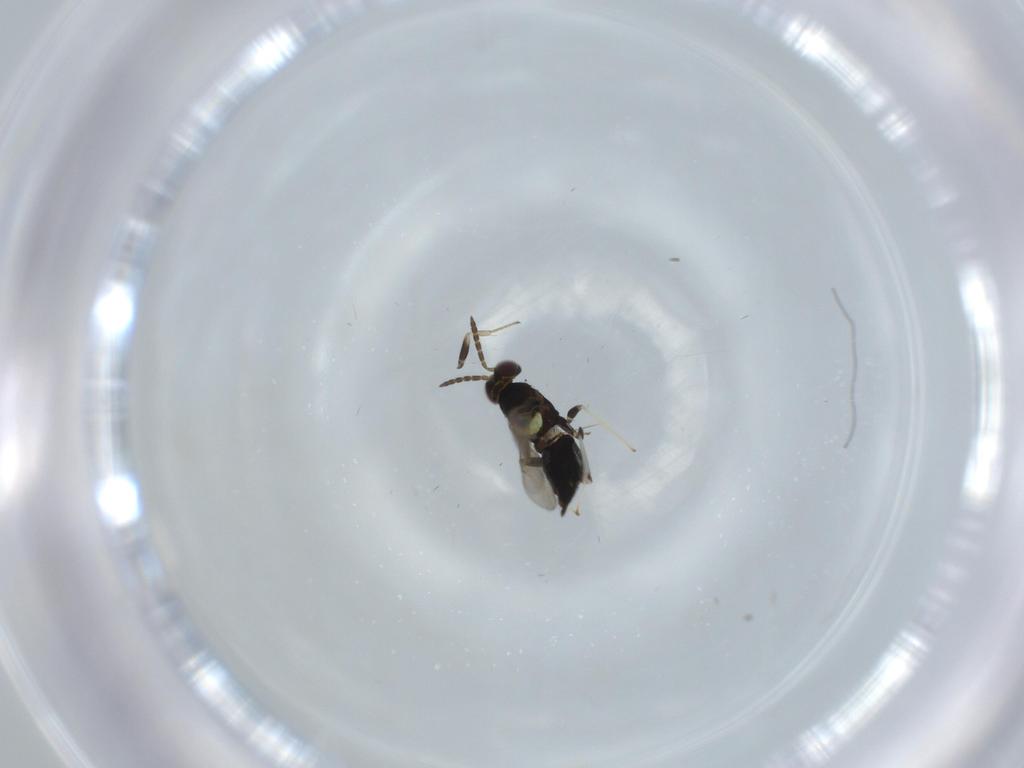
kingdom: Animalia
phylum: Arthropoda
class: Insecta
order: Hymenoptera
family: Aphelinidae
